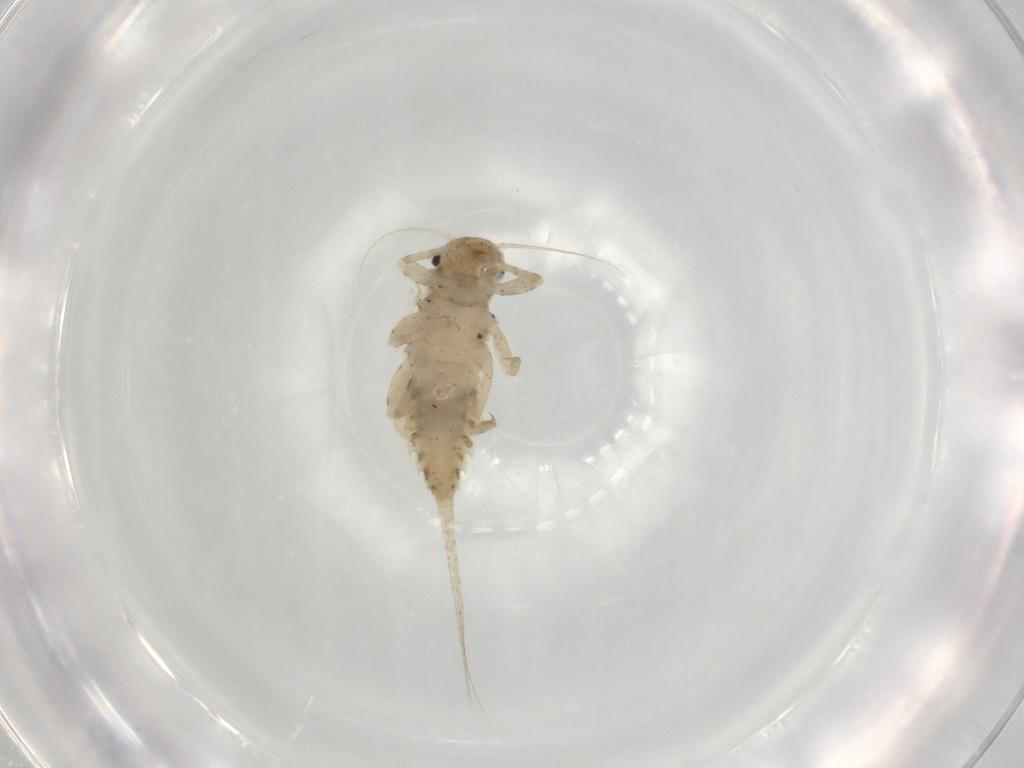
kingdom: Animalia
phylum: Arthropoda
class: Insecta
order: Ephemeroptera
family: Caenidae
